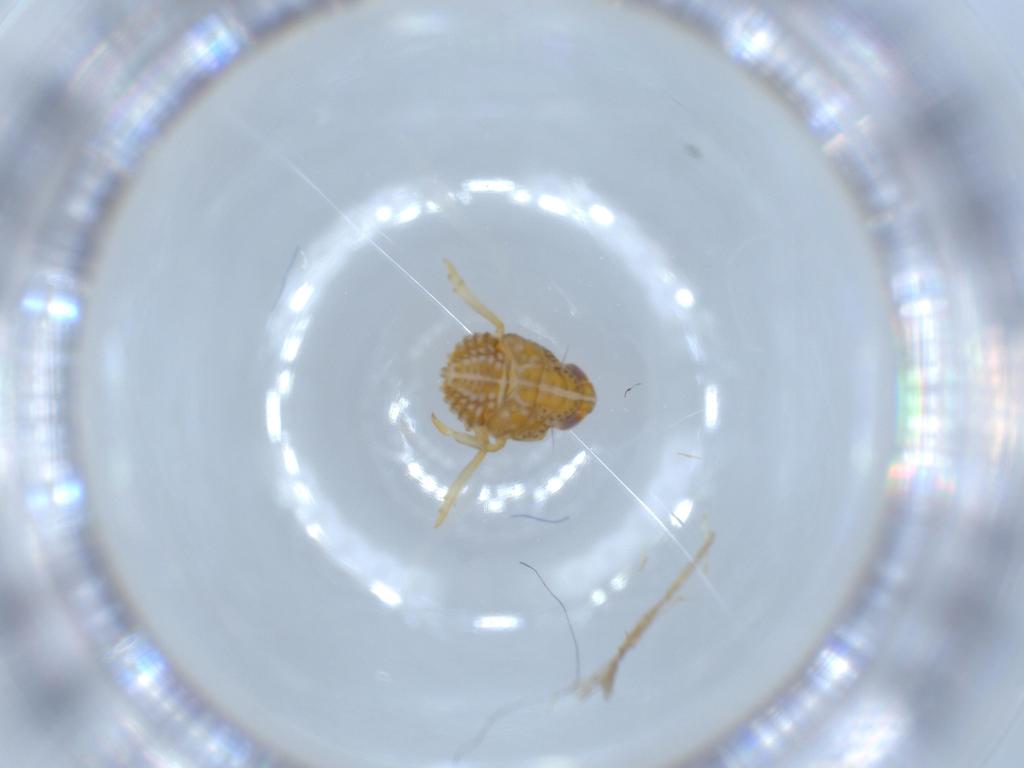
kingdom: Animalia
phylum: Arthropoda
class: Insecta
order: Hemiptera
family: Issidae
